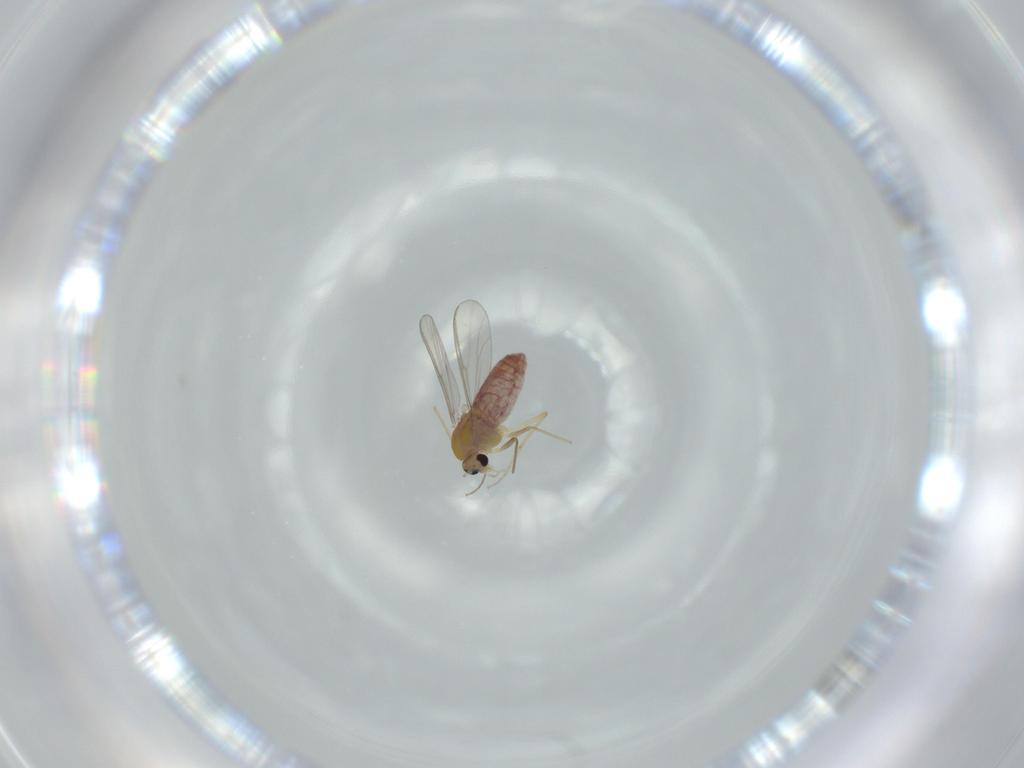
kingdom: Animalia
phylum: Arthropoda
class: Insecta
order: Diptera
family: Chironomidae
